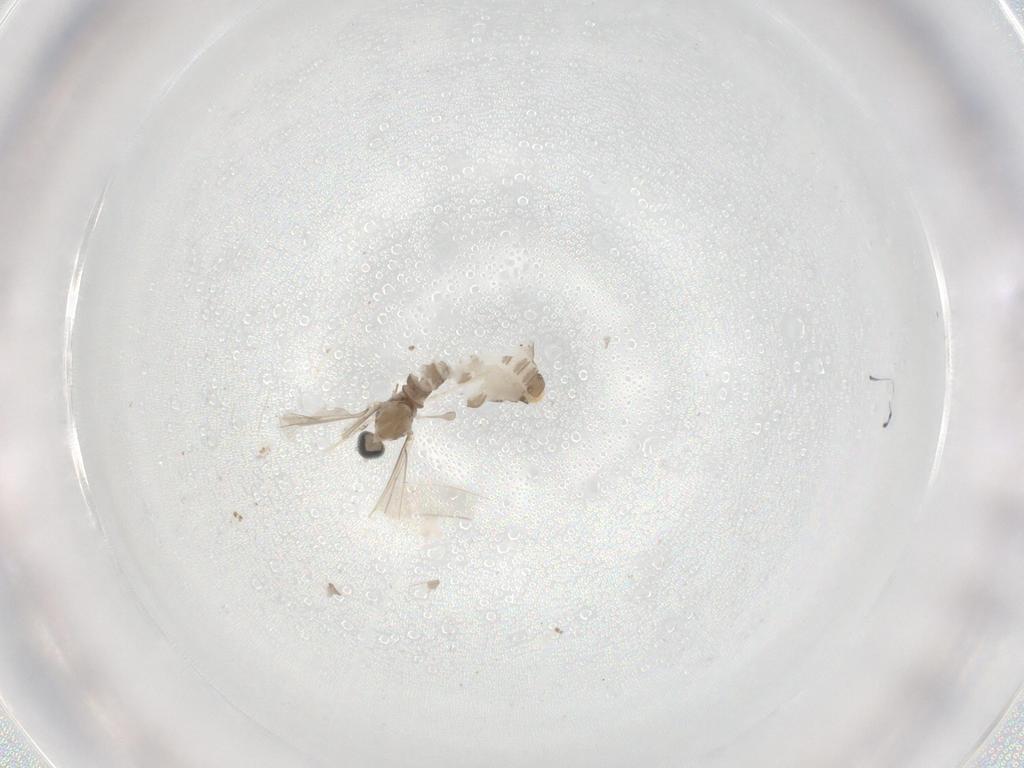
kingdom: Animalia
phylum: Arthropoda
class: Insecta
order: Diptera
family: Cecidomyiidae
